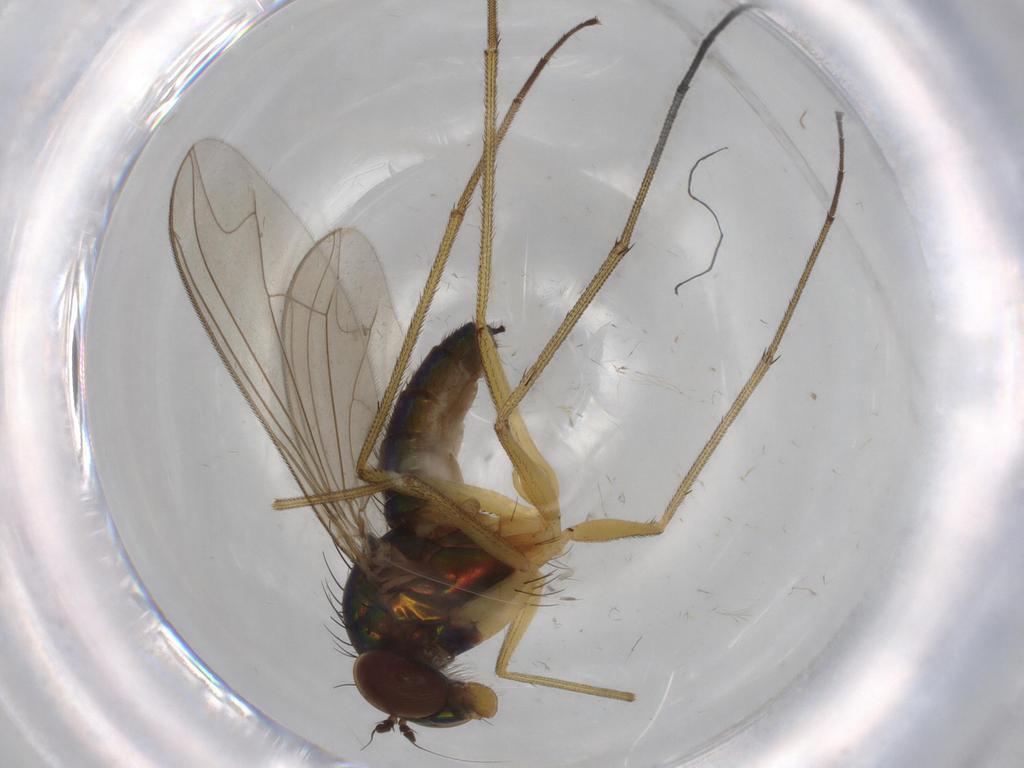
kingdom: Animalia
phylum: Arthropoda
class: Insecta
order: Diptera
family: Dolichopodidae
